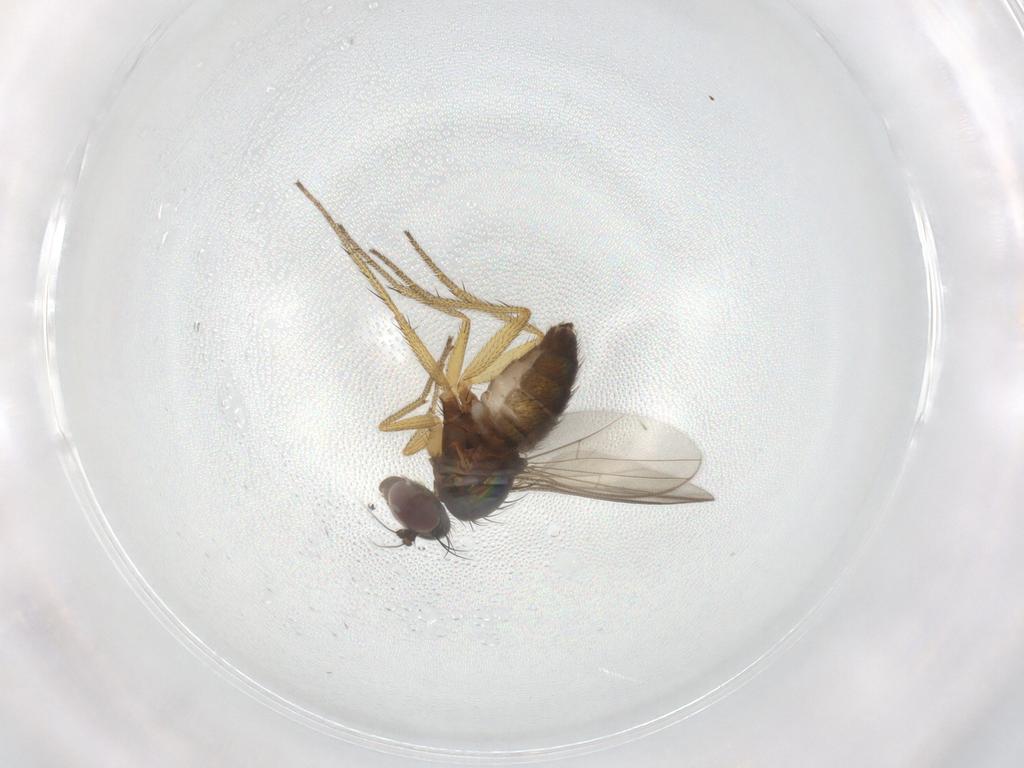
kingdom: Animalia
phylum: Arthropoda
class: Insecta
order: Diptera
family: Dolichopodidae
